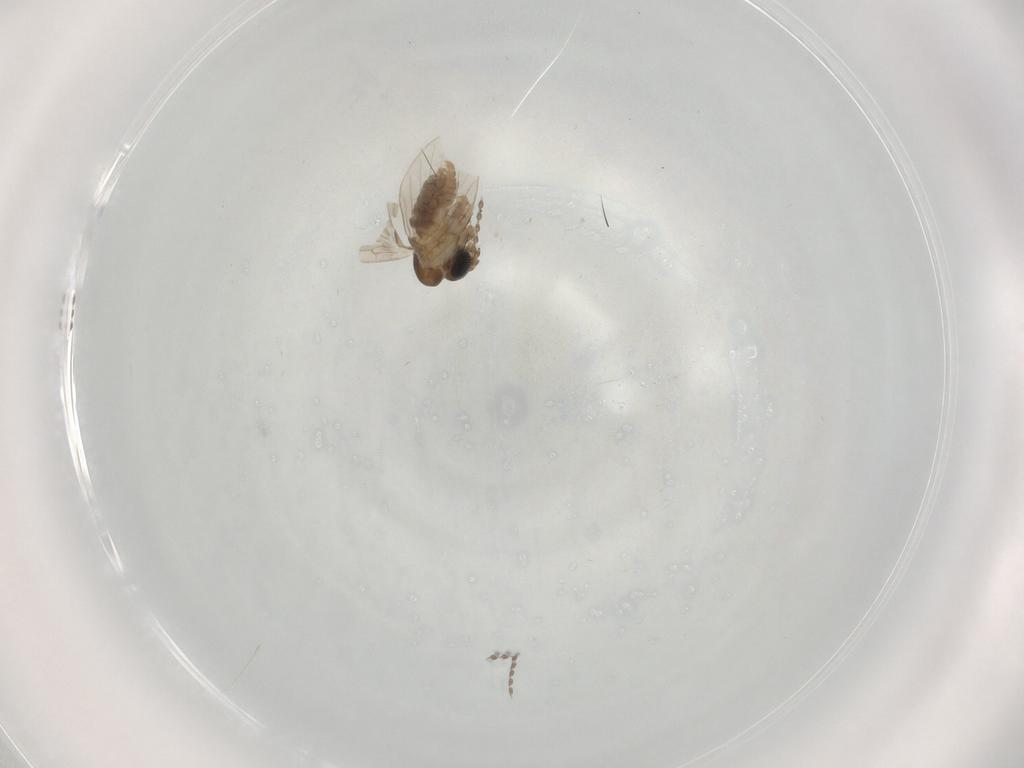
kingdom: Animalia
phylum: Arthropoda
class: Insecta
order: Diptera
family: Psychodidae
